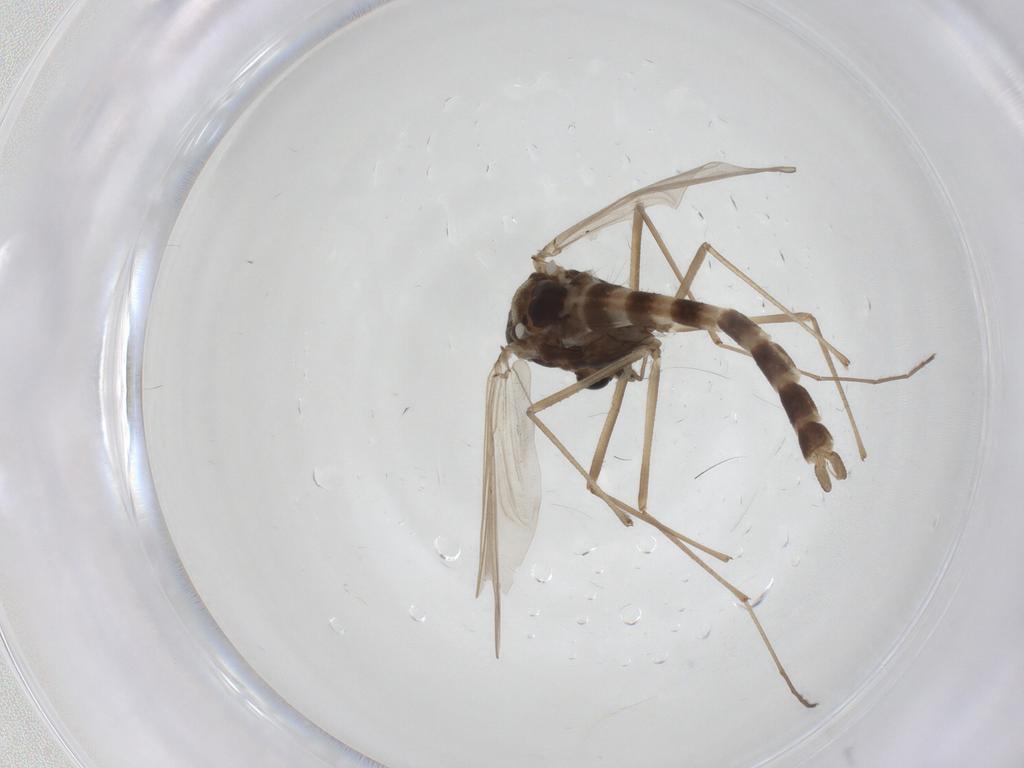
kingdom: Animalia
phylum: Arthropoda
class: Insecta
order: Diptera
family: Chironomidae
